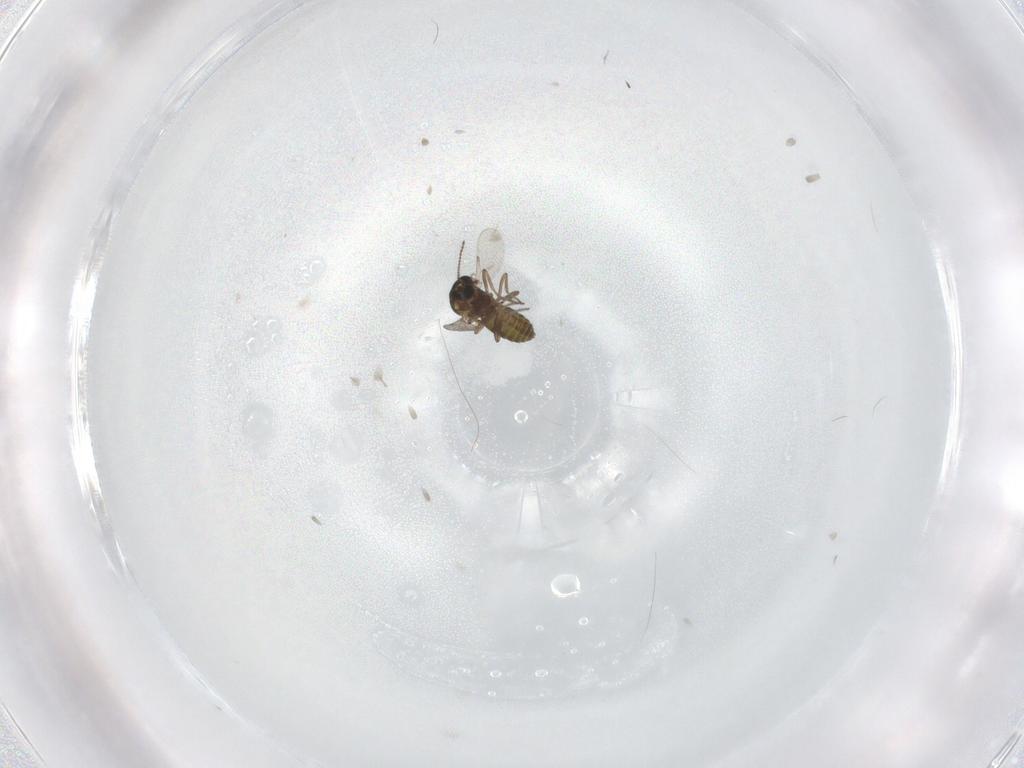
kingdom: Animalia
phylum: Arthropoda
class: Insecta
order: Diptera
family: Ceratopogonidae
